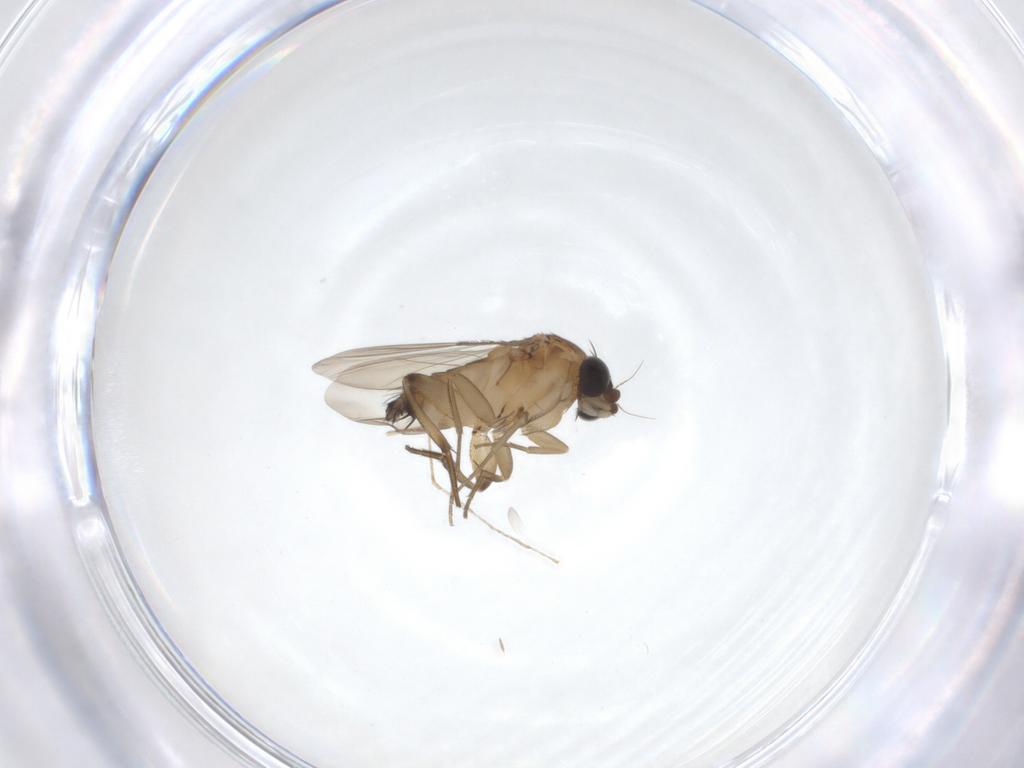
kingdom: Animalia
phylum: Arthropoda
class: Insecta
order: Diptera
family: Phoridae
